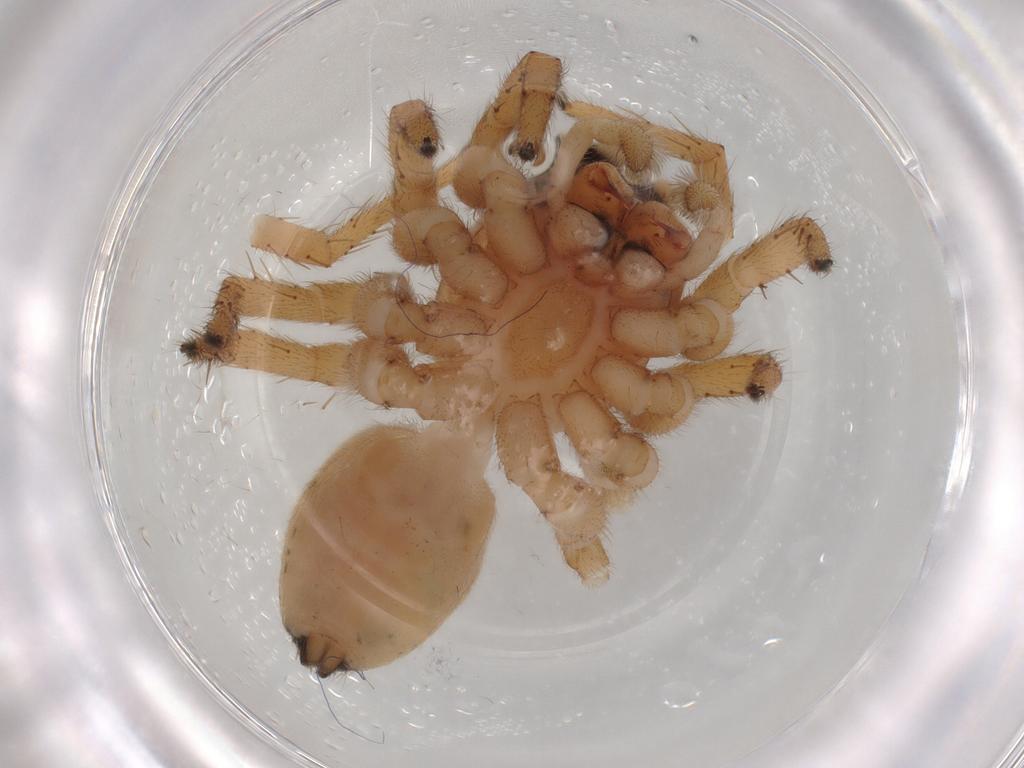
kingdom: Animalia
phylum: Arthropoda
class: Arachnida
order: Araneae
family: Salticidae
